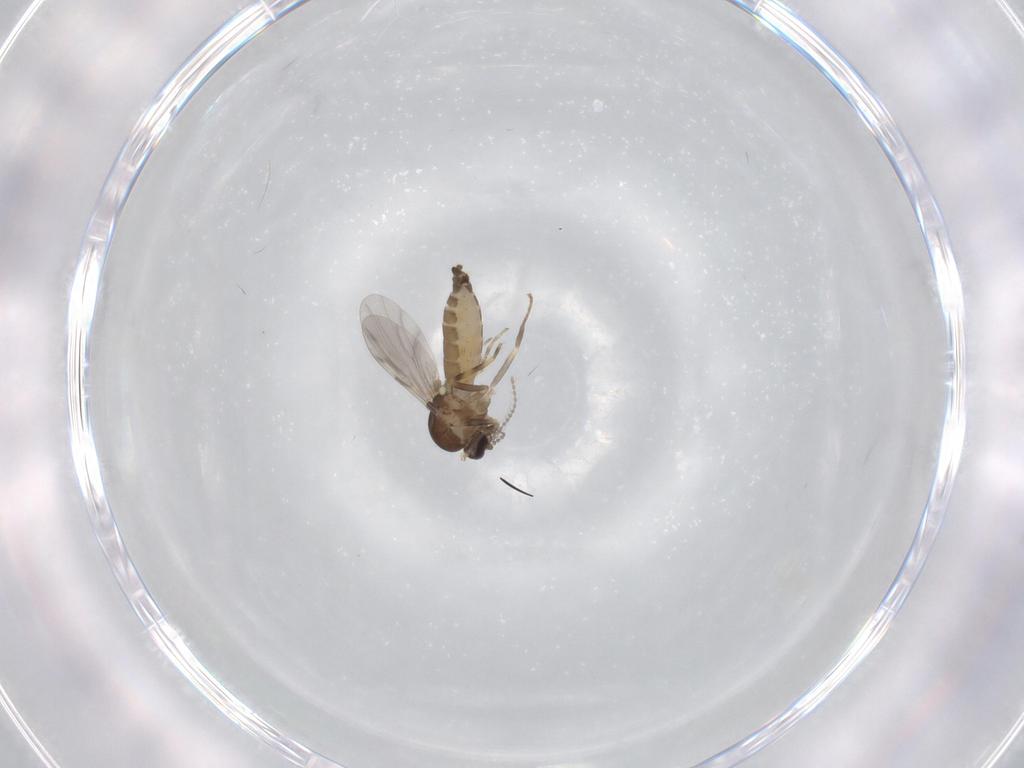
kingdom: Animalia
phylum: Arthropoda
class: Insecta
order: Diptera
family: Ceratopogonidae
